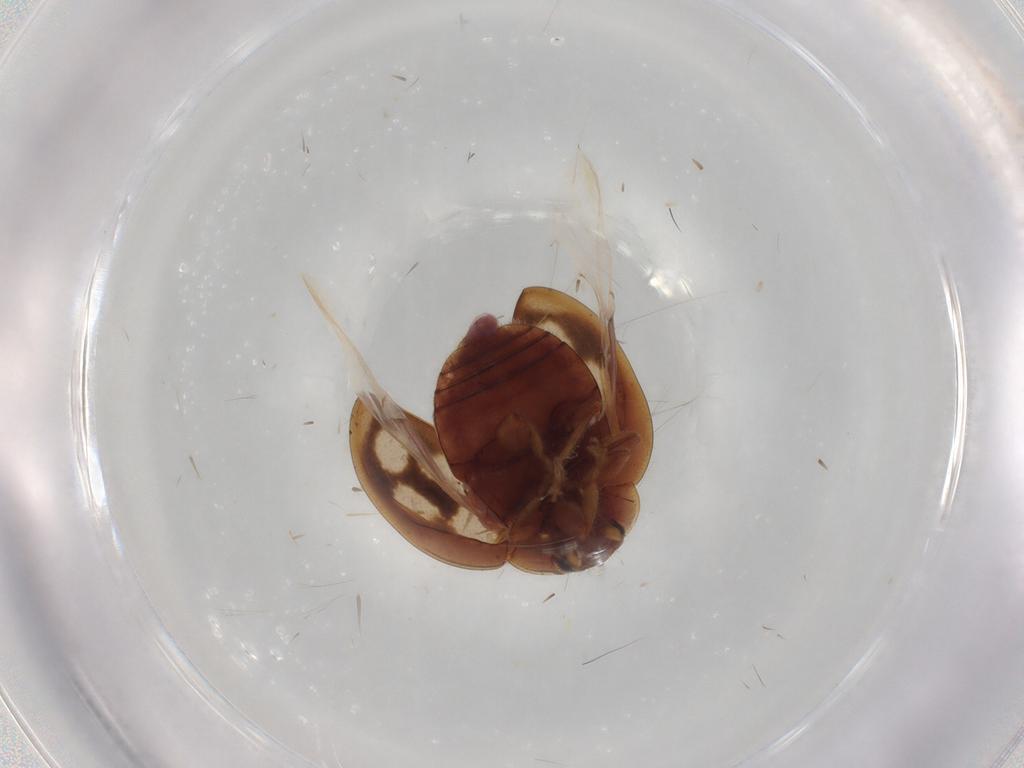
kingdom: Animalia
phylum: Arthropoda
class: Insecta
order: Coleoptera
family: Coccinellidae
